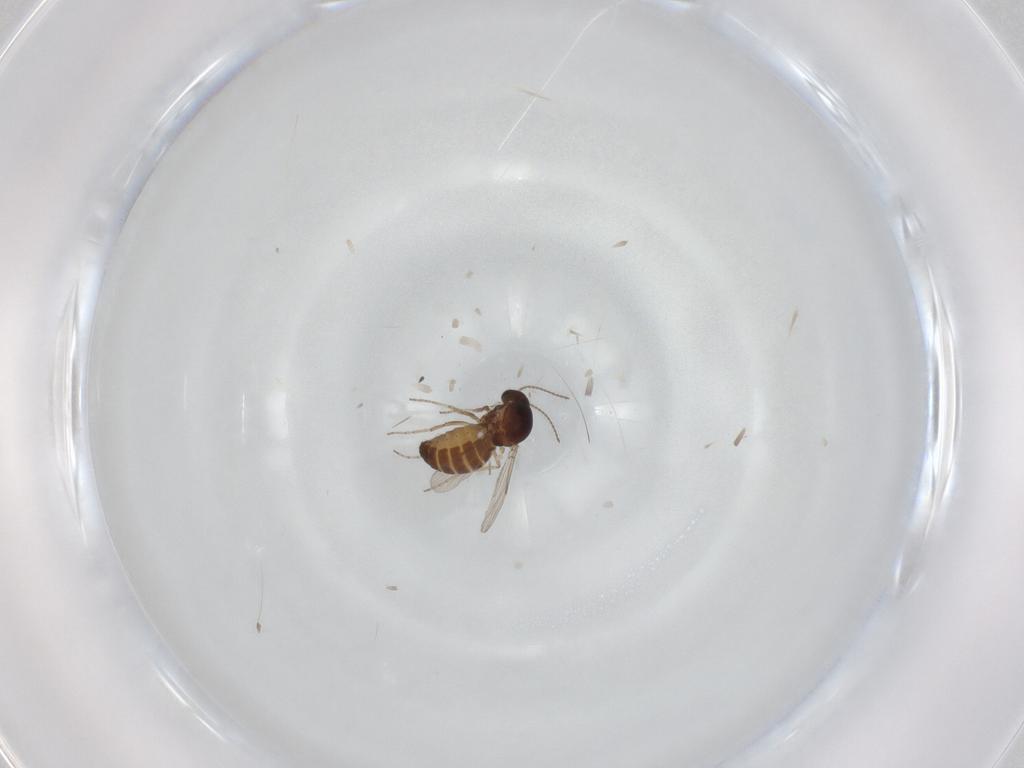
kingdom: Animalia
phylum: Arthropoda
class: Insecta
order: Diptera
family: Ceratopogonidae
